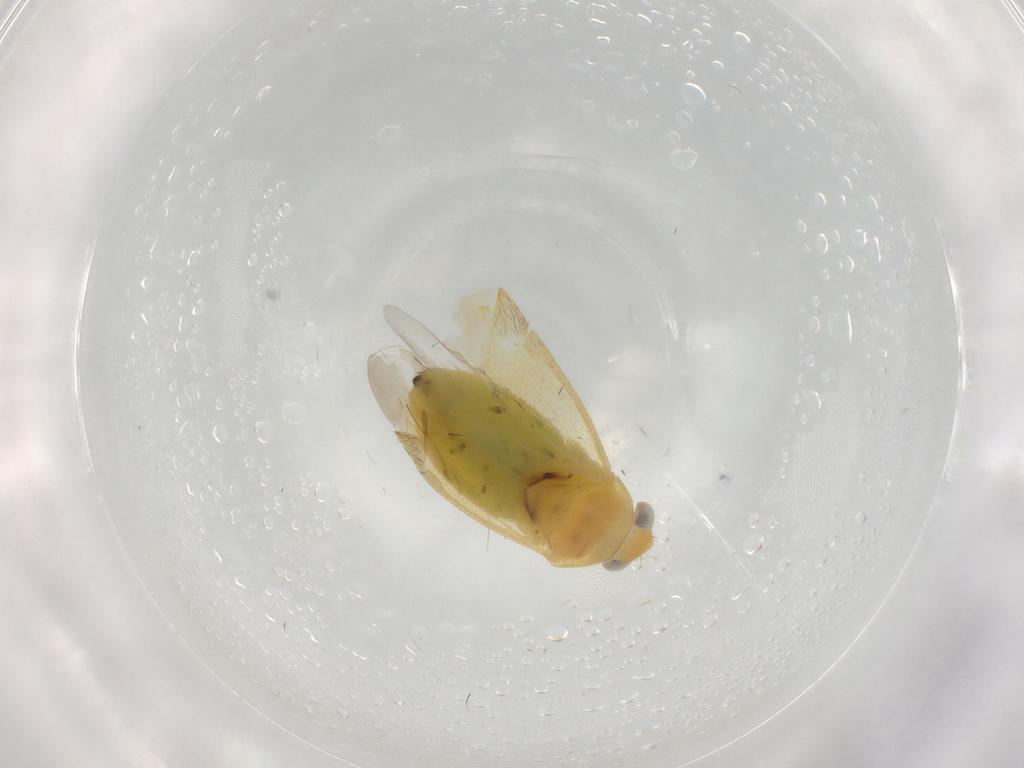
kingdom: Animalia
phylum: Arthropoda
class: Insecta
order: Hemiptera
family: Miridae
